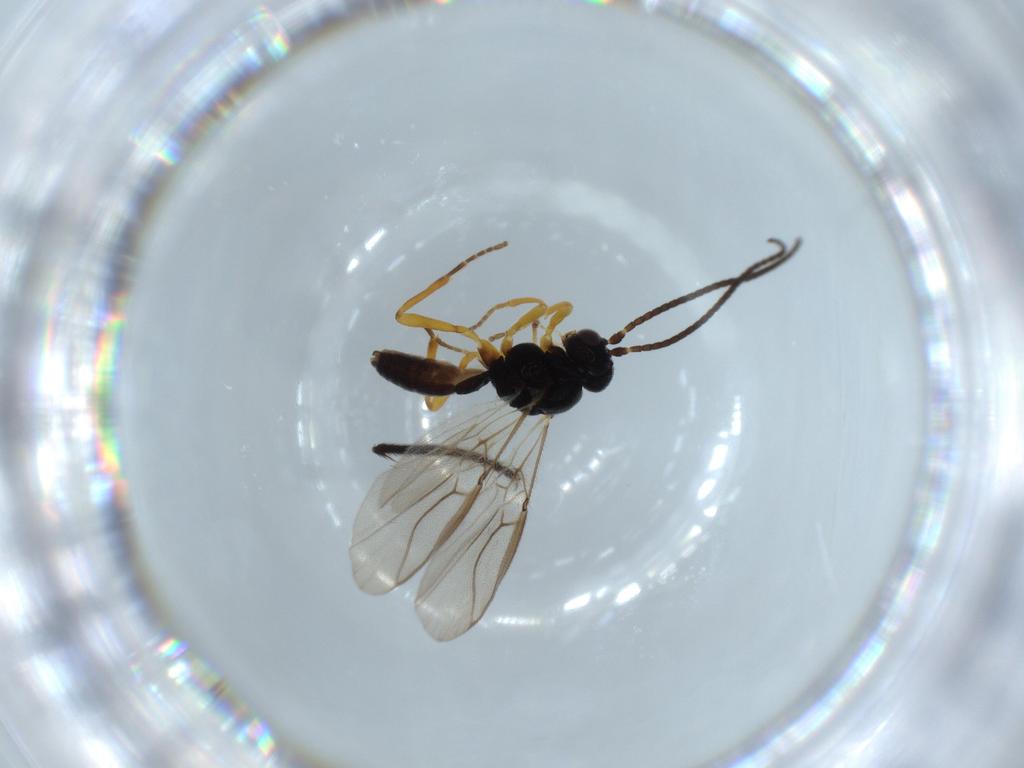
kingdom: Animalia
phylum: Arthropoda
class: Insecta
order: Hymenoptera
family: Braconidae
